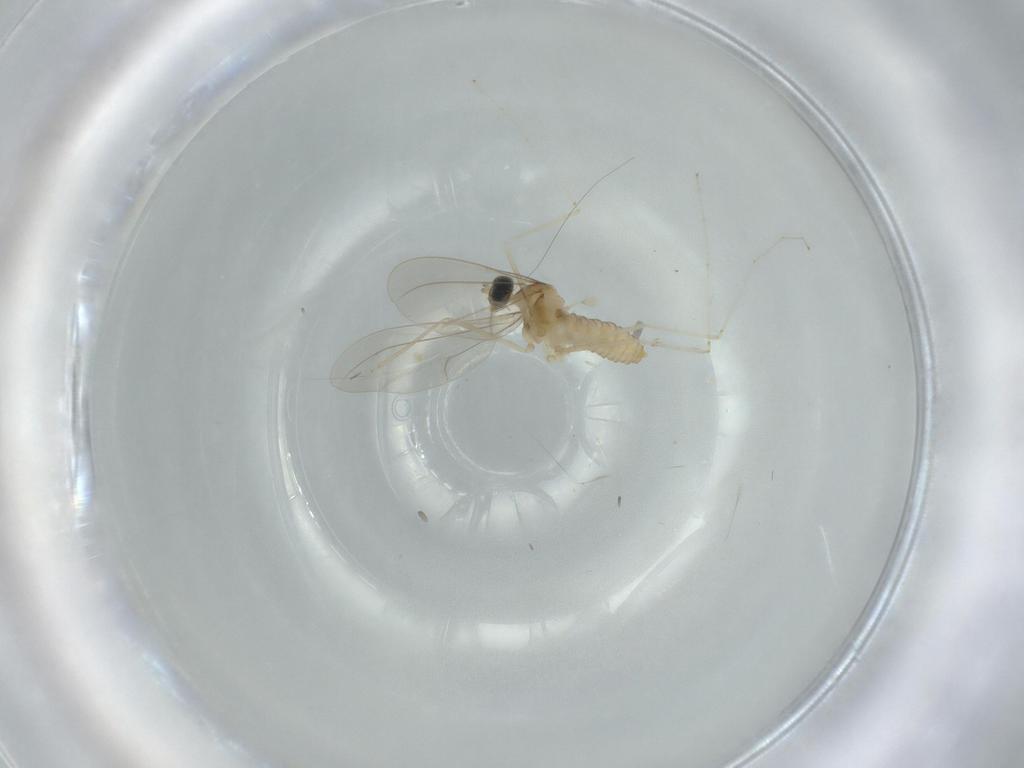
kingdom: Animalia
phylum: Arthropoda
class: Insecta
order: Diptera
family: Cecidomyiidae
